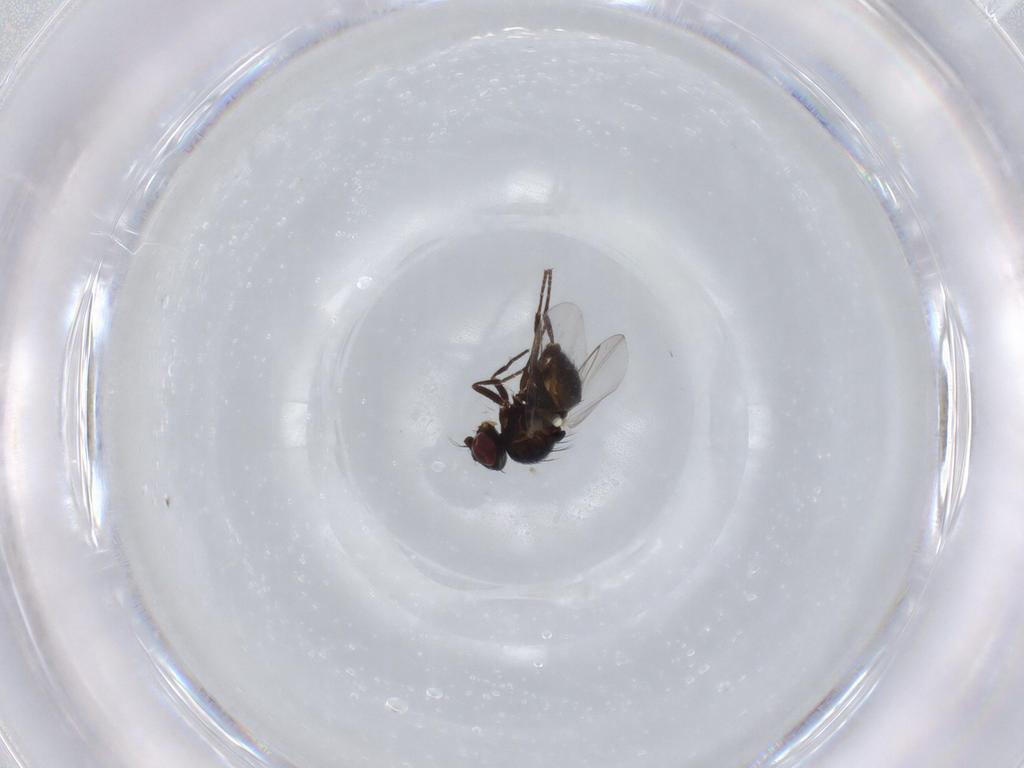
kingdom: Animalia
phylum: Arthropoda
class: Insecta
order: Diptera
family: Agromyzidae
